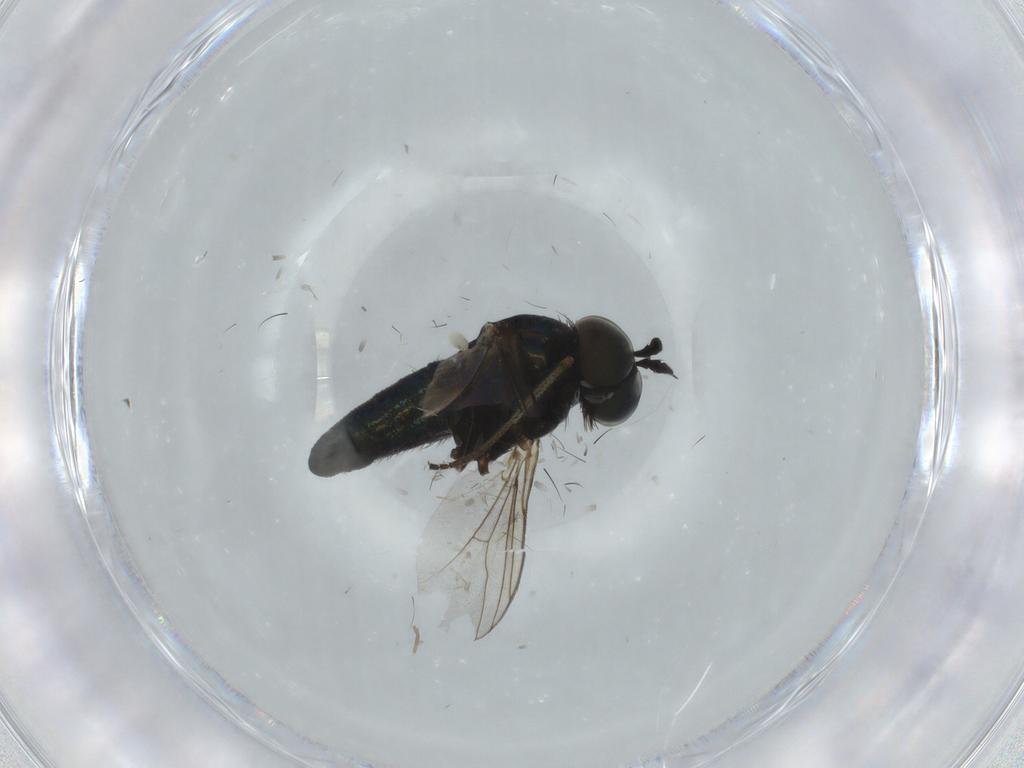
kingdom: Animalia
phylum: Arthropoda
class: Insecta
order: Diptera
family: Dolichopodidae
